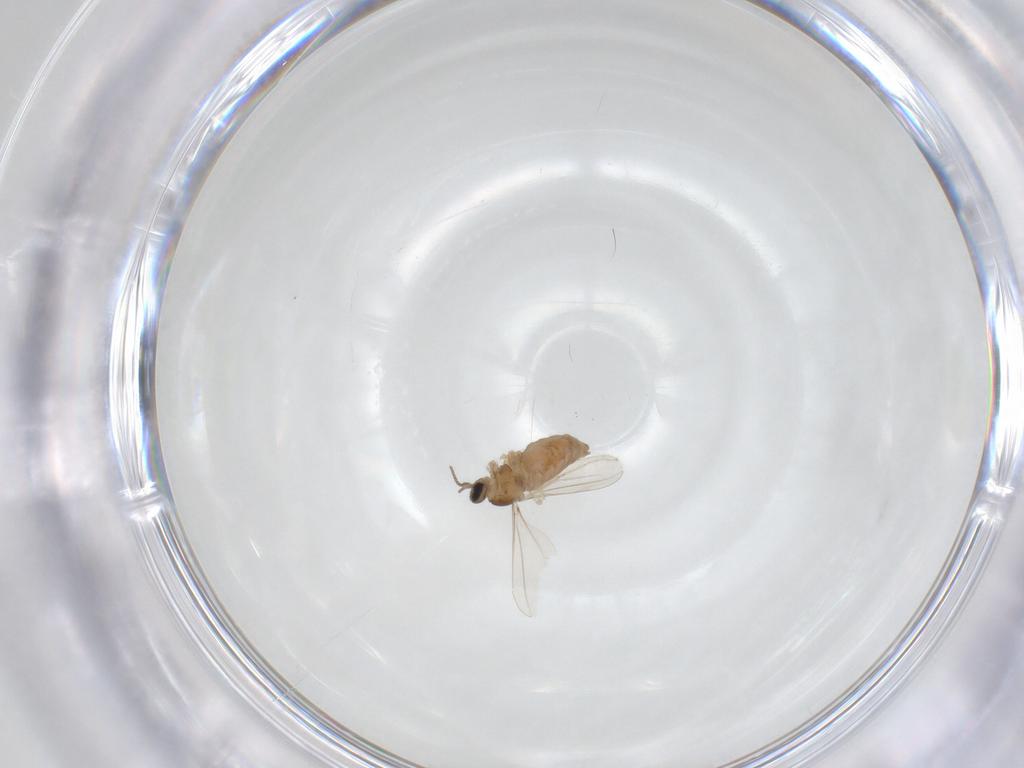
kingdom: Animalia
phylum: Arthropoda
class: Insecta
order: Diptera
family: Cecidomyiidae
